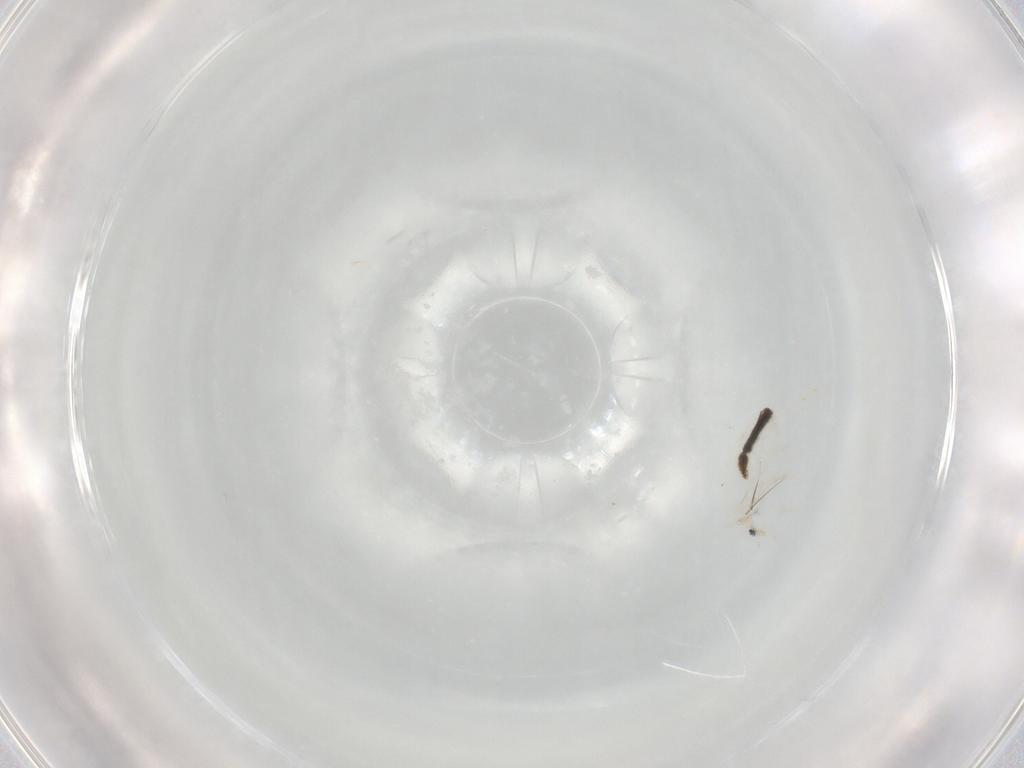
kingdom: Animalia
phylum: Arthropoda
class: Collembola
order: Entomobryomorpha
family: Entomobryidae
